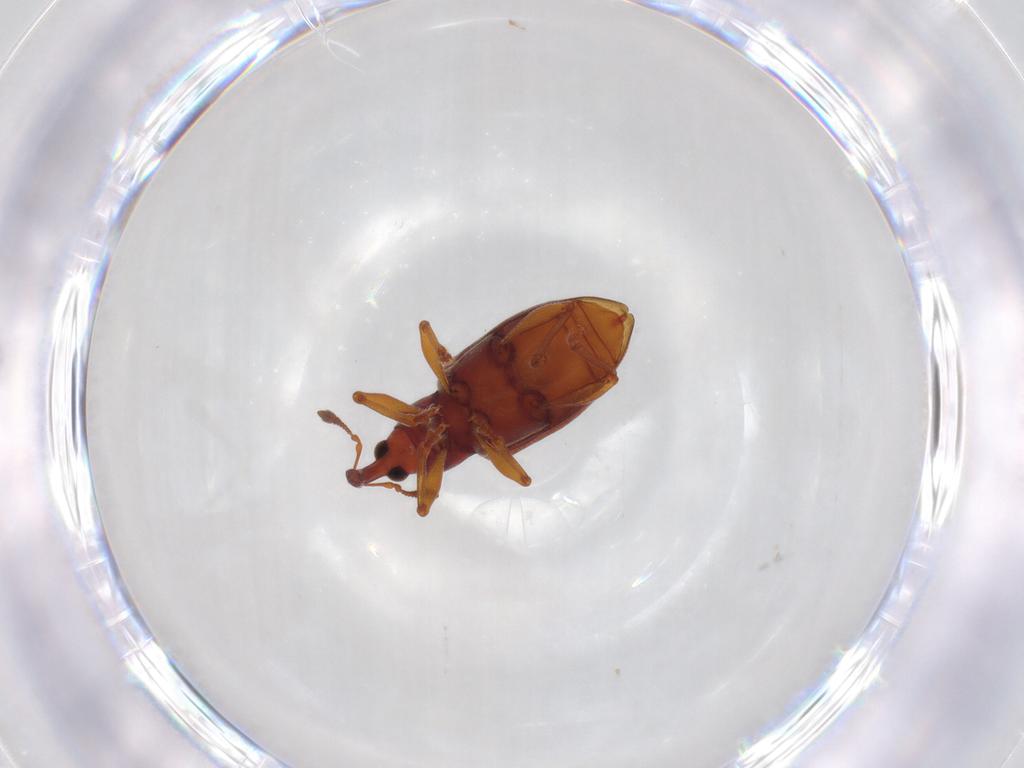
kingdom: Animalia
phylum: Arthropoda
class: Insecta
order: Coleoptera
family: Curculionidae
